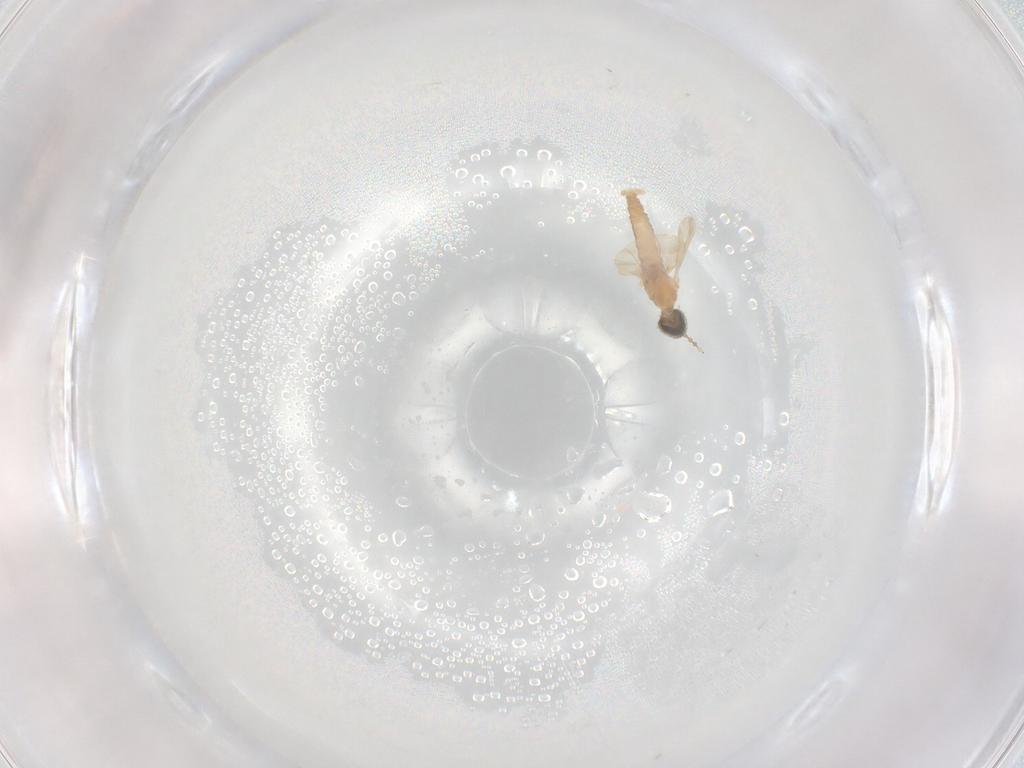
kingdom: Animalia
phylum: Arthropoda
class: Insecta
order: Diptera
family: Cecidomyiidae
